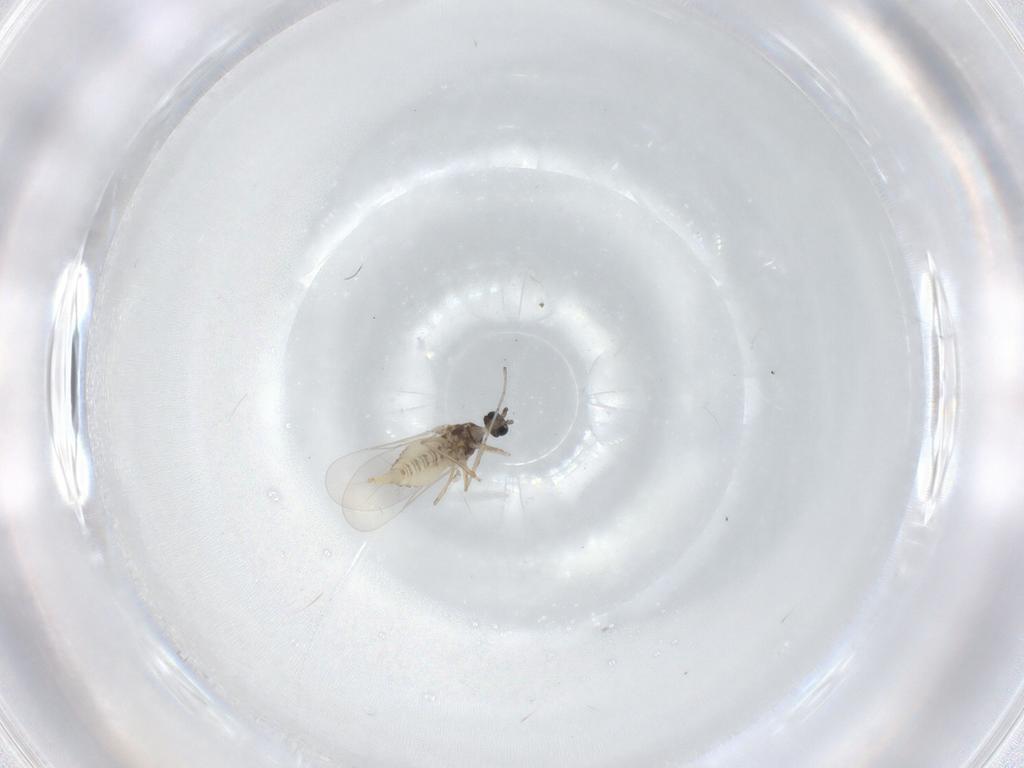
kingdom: Animalia
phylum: Arthropoda
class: Insecta
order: Diptera
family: Cecidomyiidae
